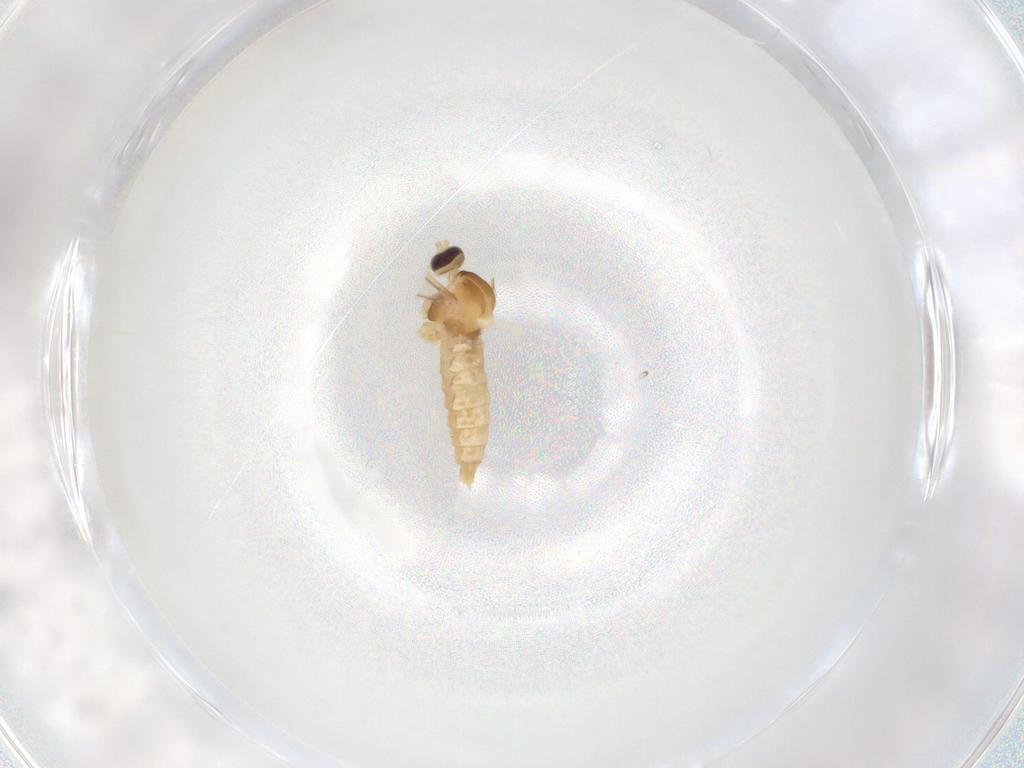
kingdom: Animalia
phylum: Arthropoda
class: Insecta
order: Diptera
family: Cecidomyiidae
